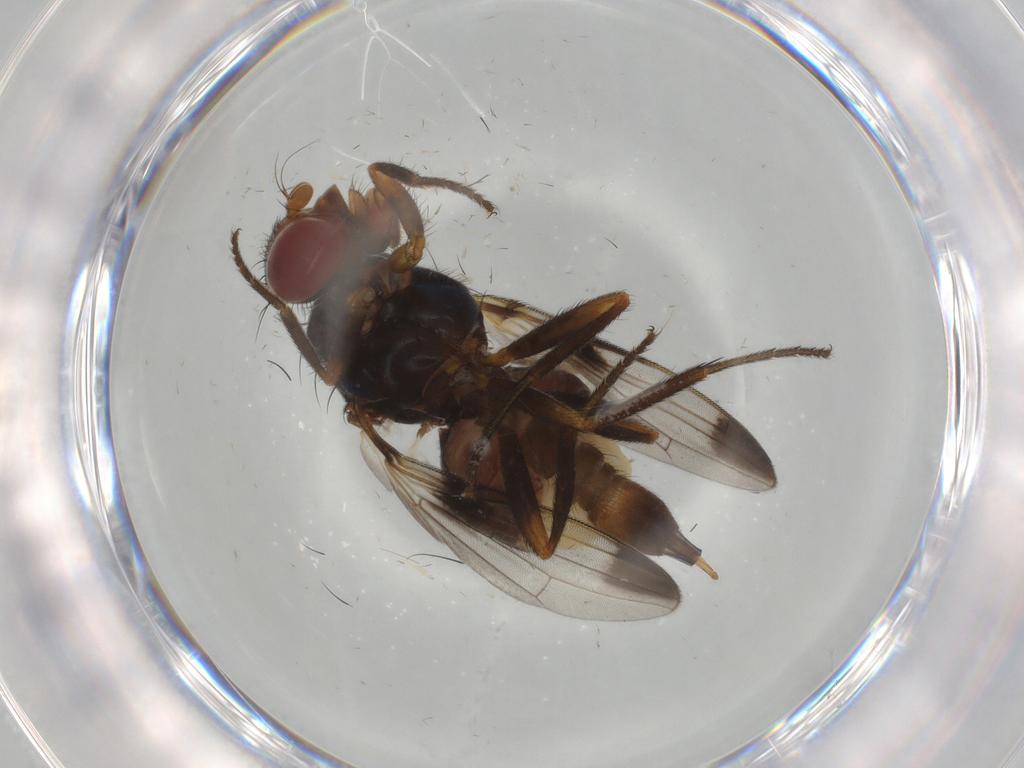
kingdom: Animalia
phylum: Arthropoda
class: Insecta
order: Diptera
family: Ulidiidae
